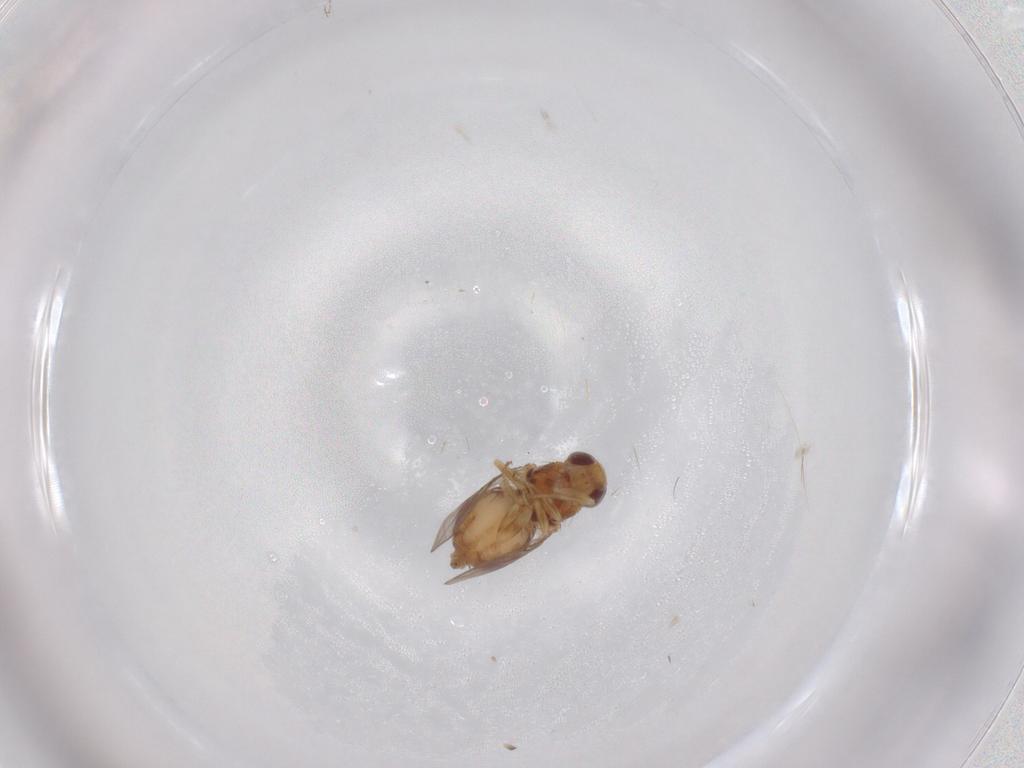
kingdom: Animalia
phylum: Arthropoda
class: Insecta
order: Diptera
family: Chloropidae
